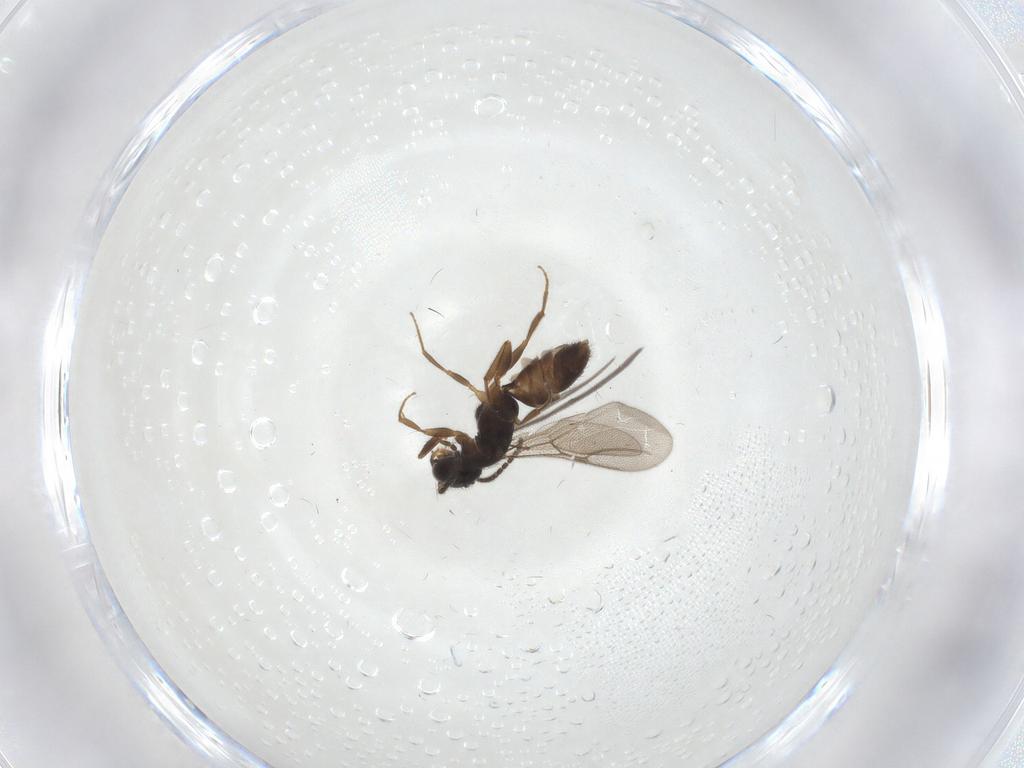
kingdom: Animalia
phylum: Arthropoda
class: Insecta
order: Hymenoptera
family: Bethylidae
